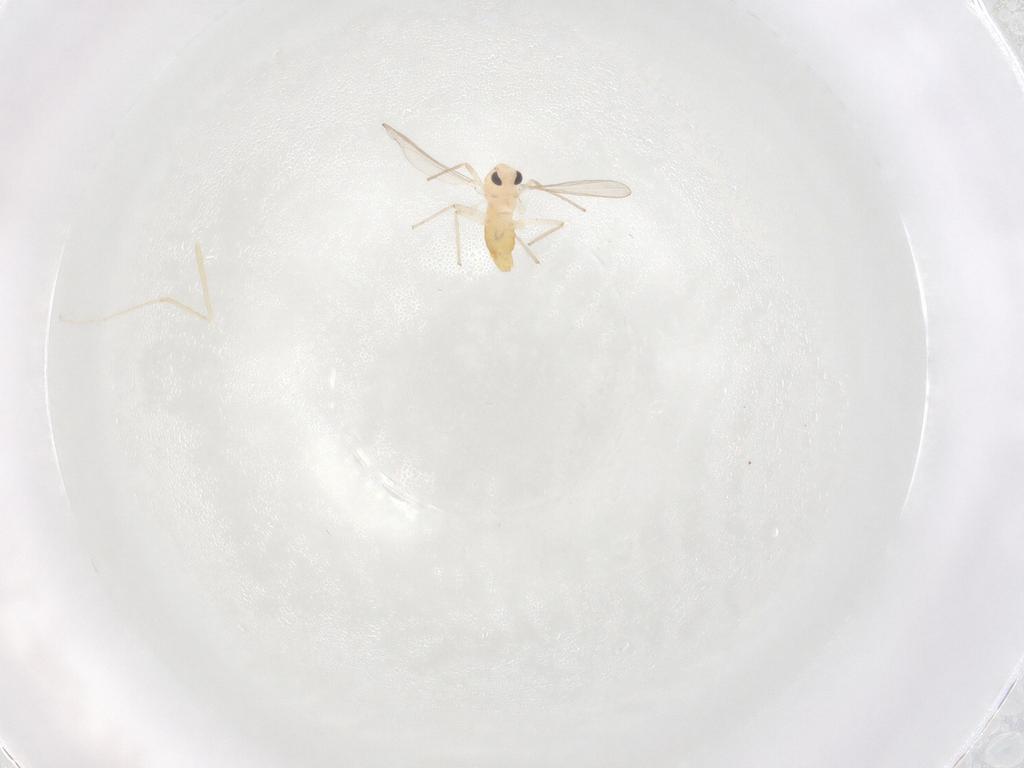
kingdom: Animalia
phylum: Arthropoda
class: Insecta
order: Diptera
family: Cecidomyiidae
